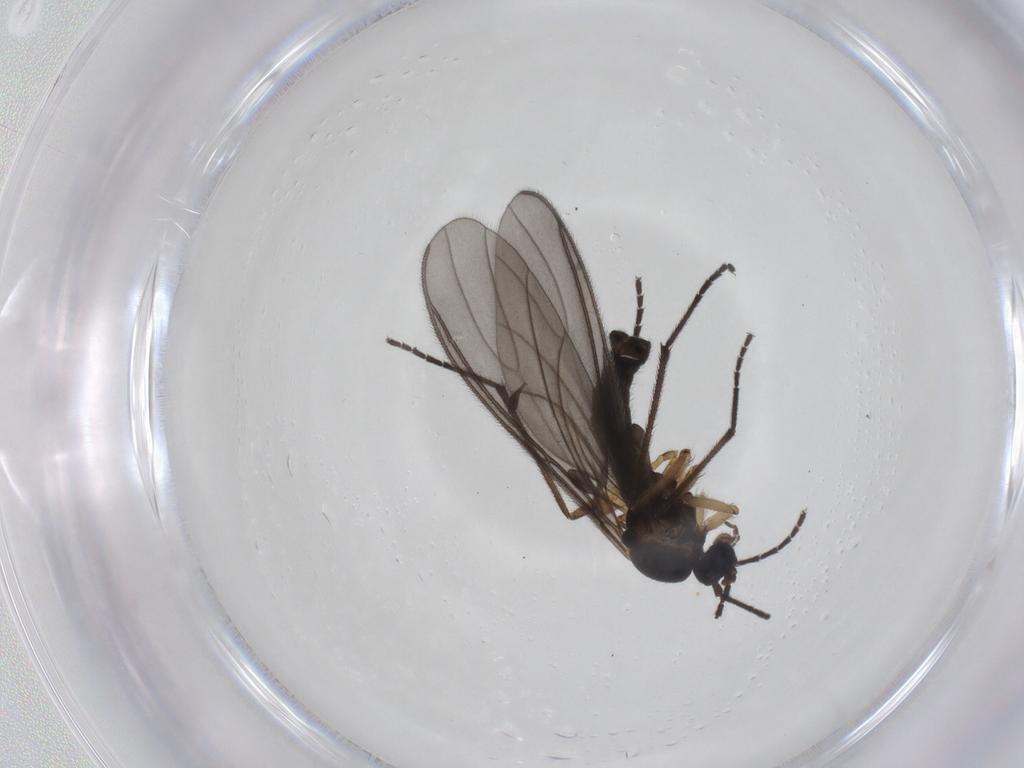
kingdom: Animalia
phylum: Arthropoda
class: Insecta
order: Diptera
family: Sciaridae
